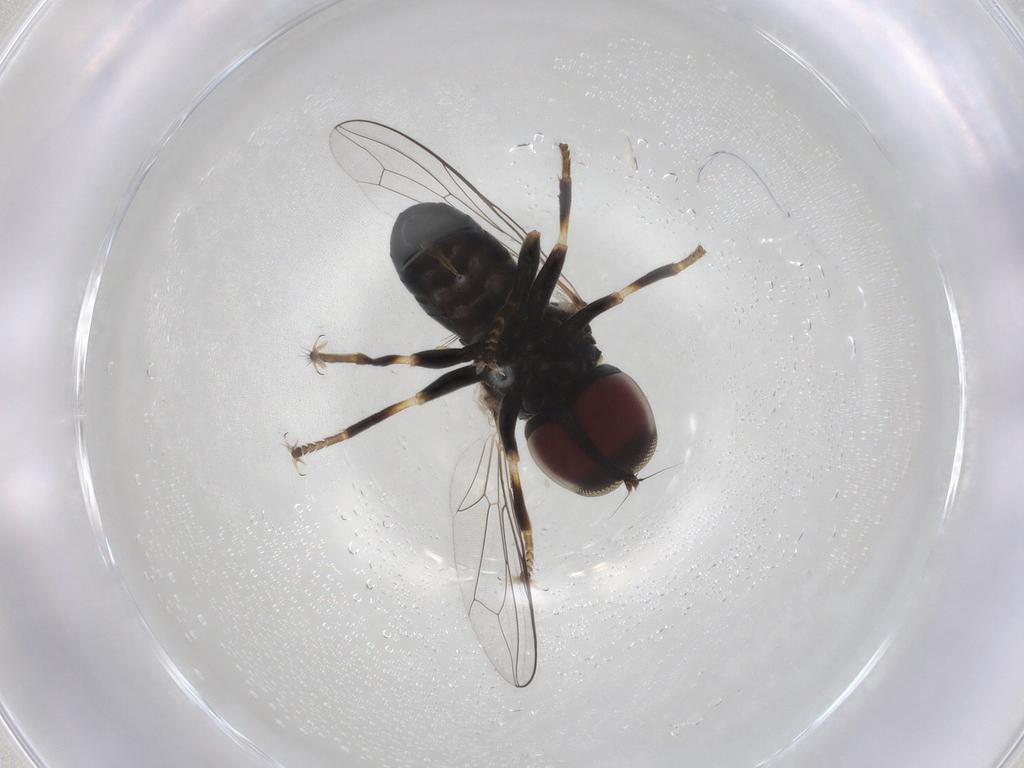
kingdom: Animalia
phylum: Arthropoda
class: Insecta
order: Diptera
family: Pipunculidae
